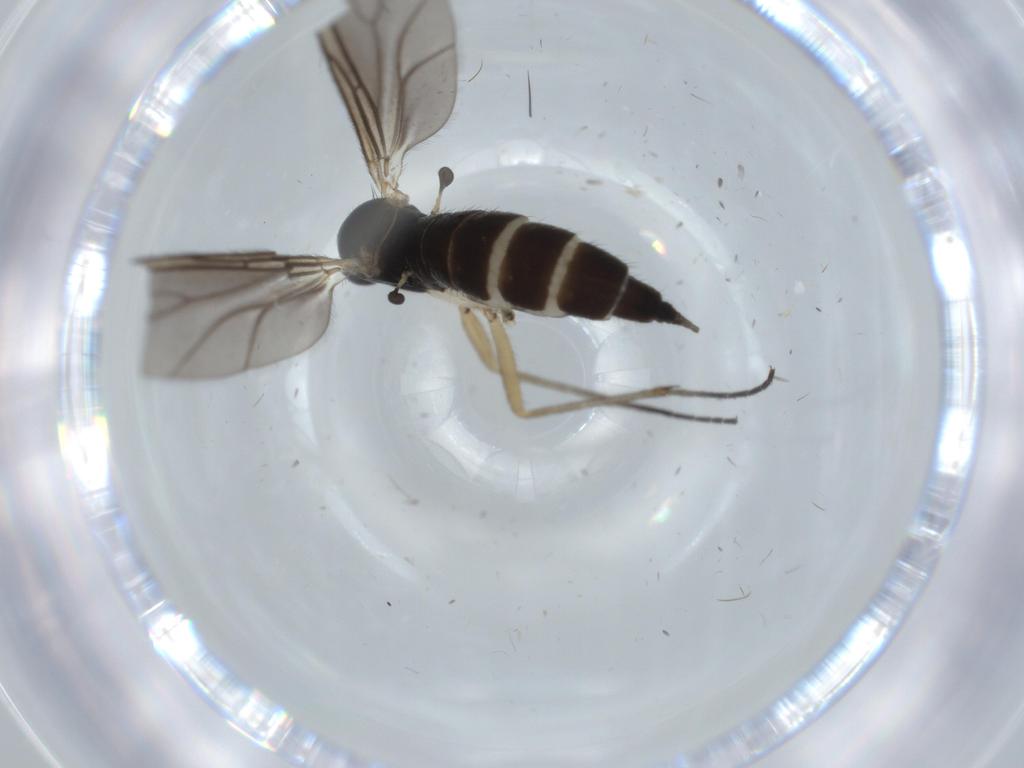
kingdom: Animalia
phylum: Arthropoda
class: Insecta
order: Diptera
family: Sciaridae
